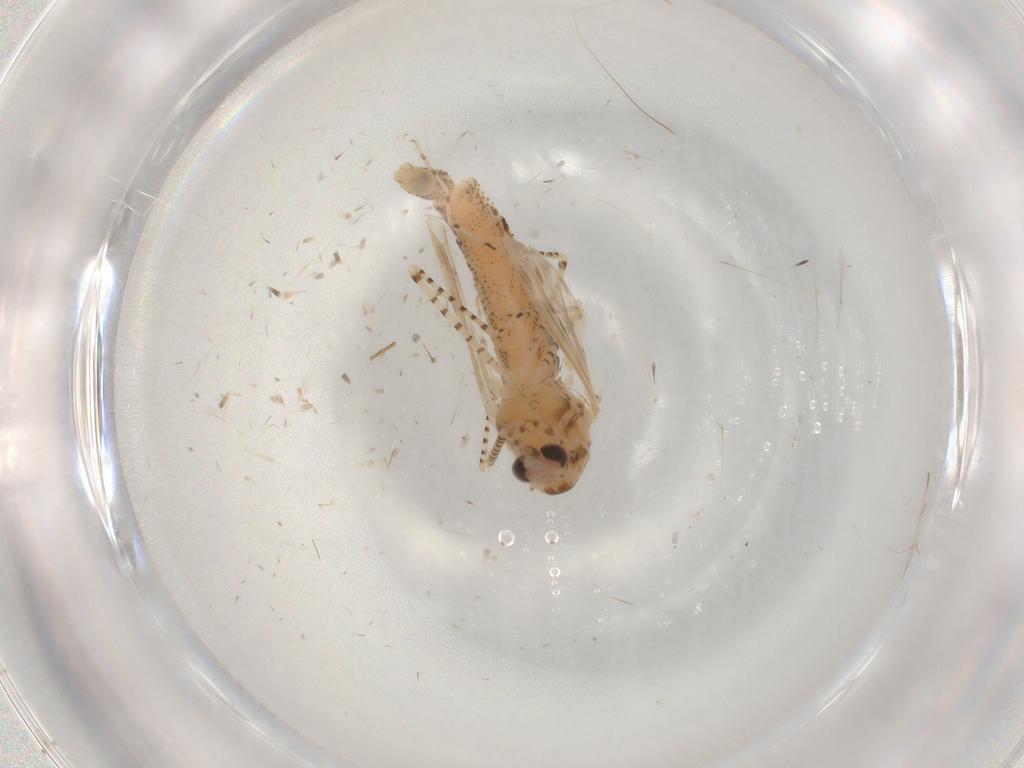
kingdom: Animalia
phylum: Arthropoda
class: Insecta
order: Diptera
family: Chaoboridae
